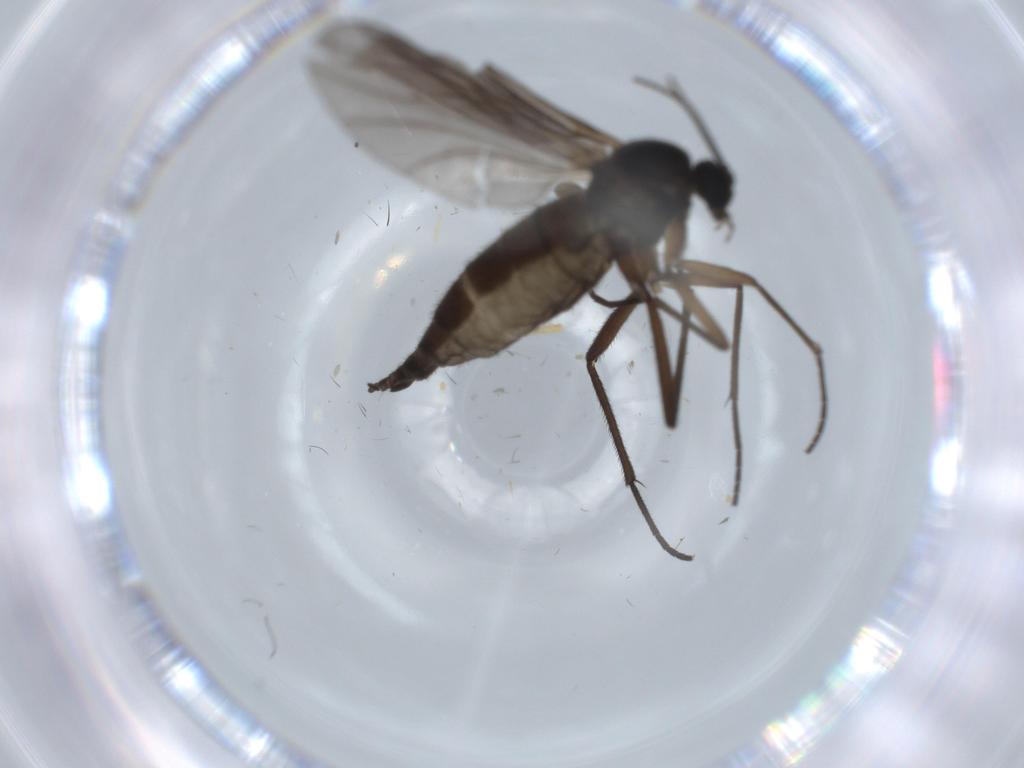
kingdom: Animalia
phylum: Arthropoda
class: Insecta
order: Diptera
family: Sciaridae
